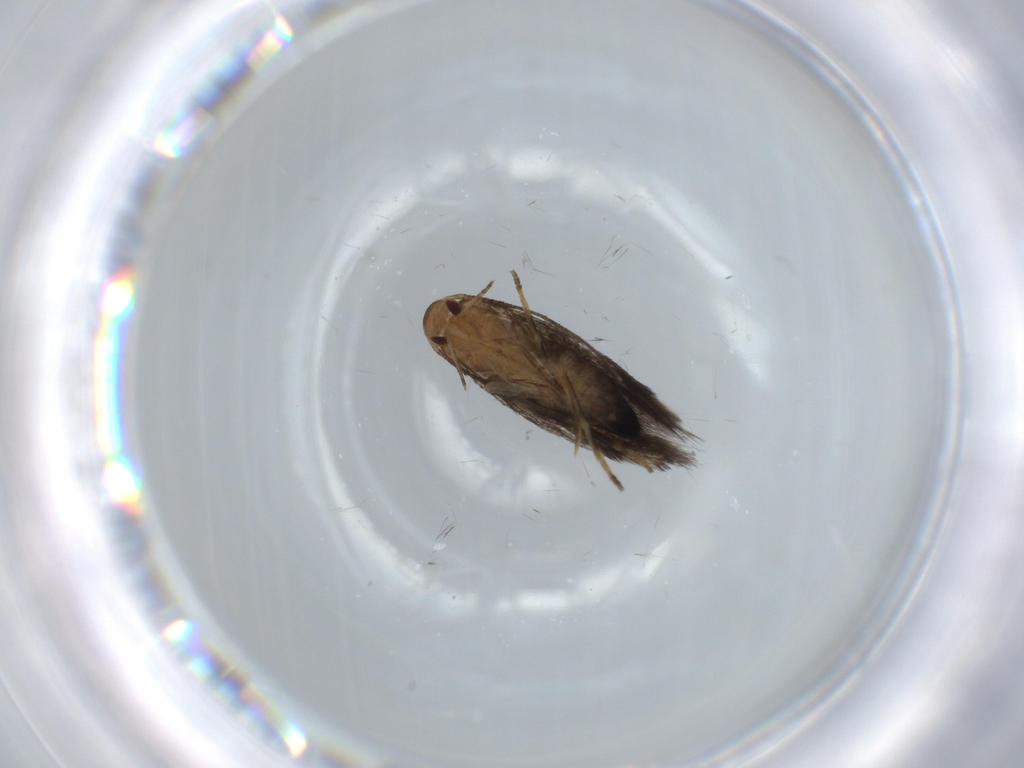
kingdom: Animalia
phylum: Arthropoda
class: Insecta
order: Lepidoptera
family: Cosmopterigidae
